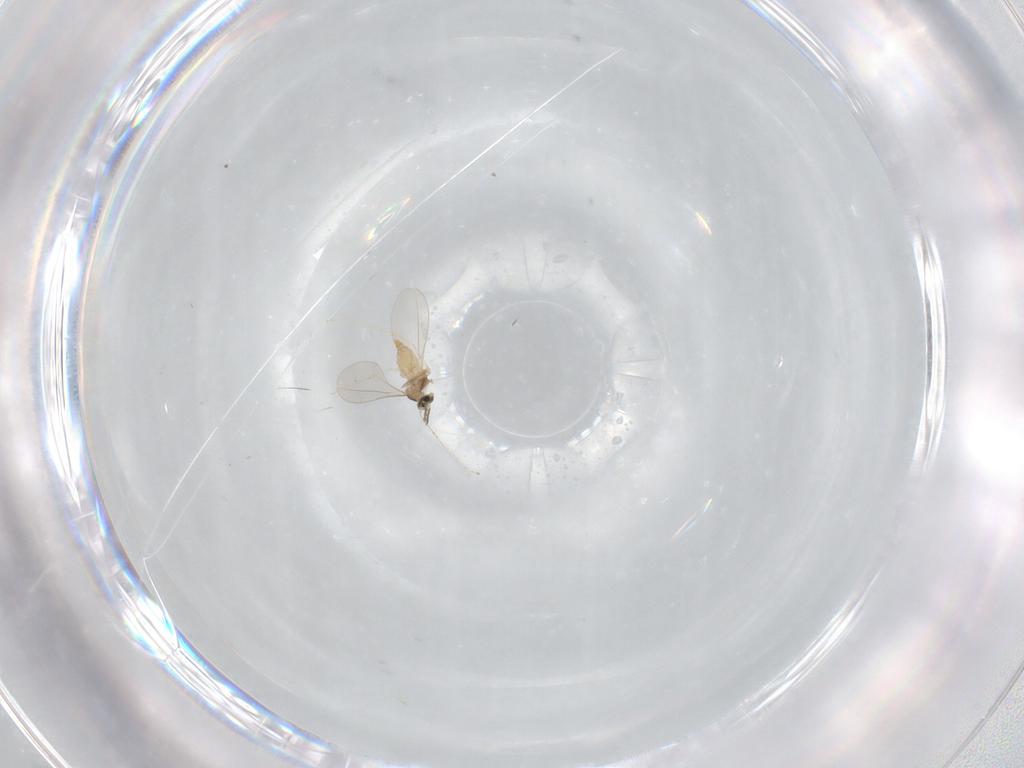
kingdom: Animalia
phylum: Arthropoda
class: Insecta
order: Diptera
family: Cecidomyiidae
